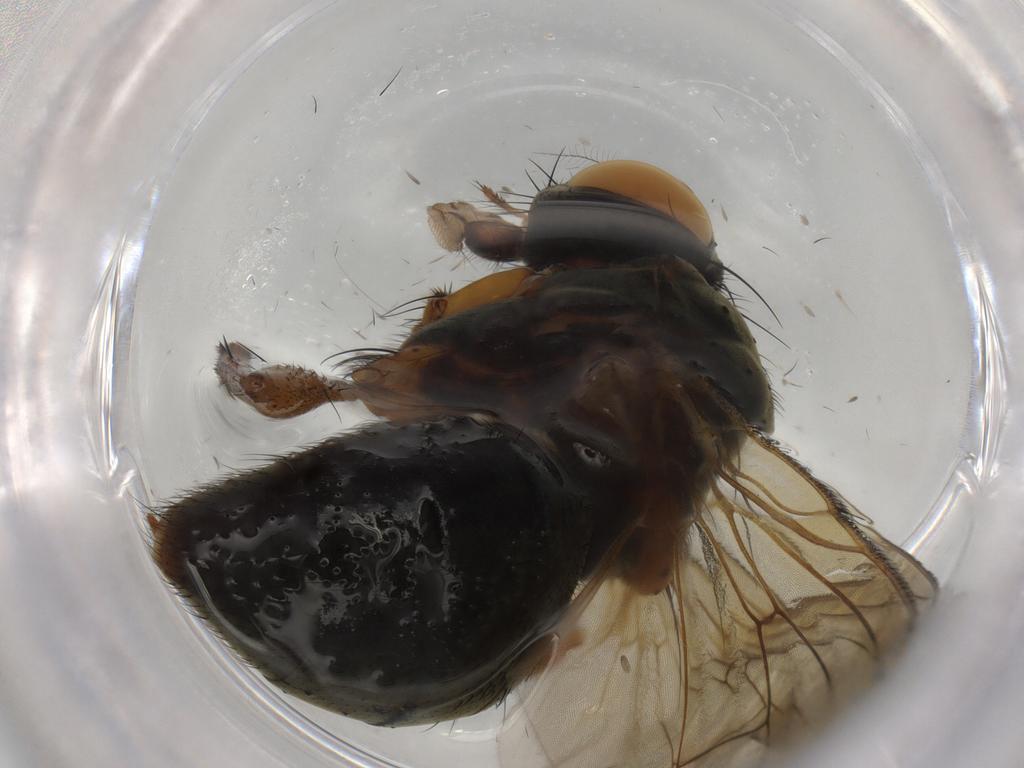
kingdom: Animalia
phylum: Arthropoda
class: Insecta
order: Diptera
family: Muscidae
